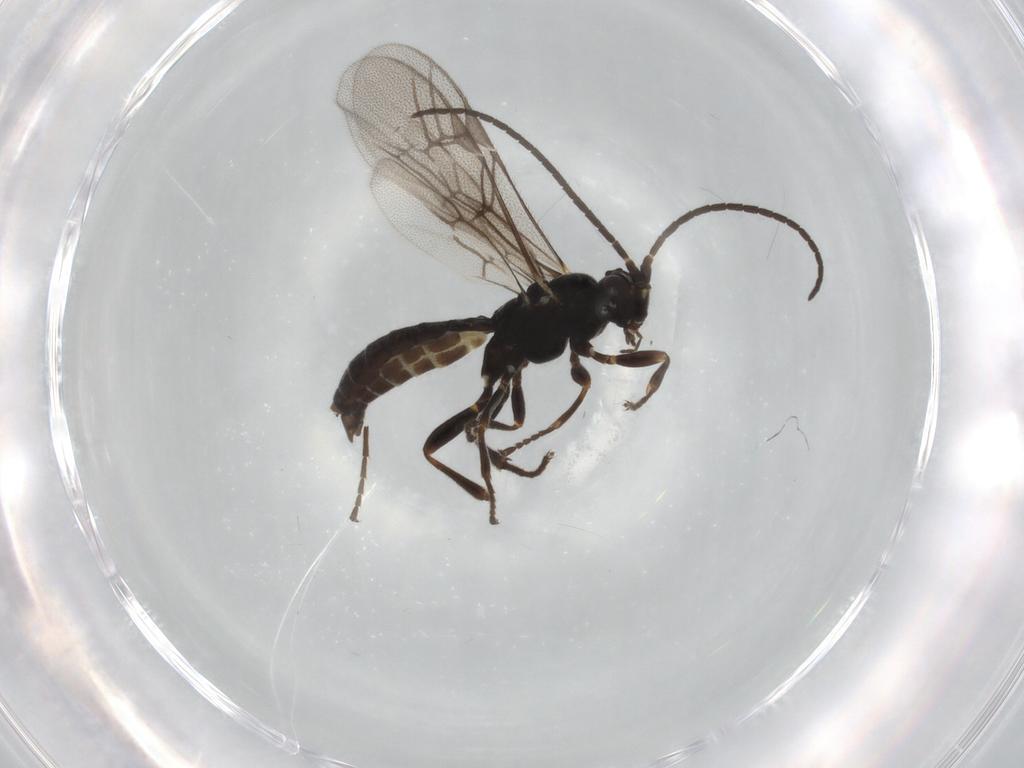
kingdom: Animalia
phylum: Arthropoda
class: Insecta
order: Hymenoptera
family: Ichneumonidae
